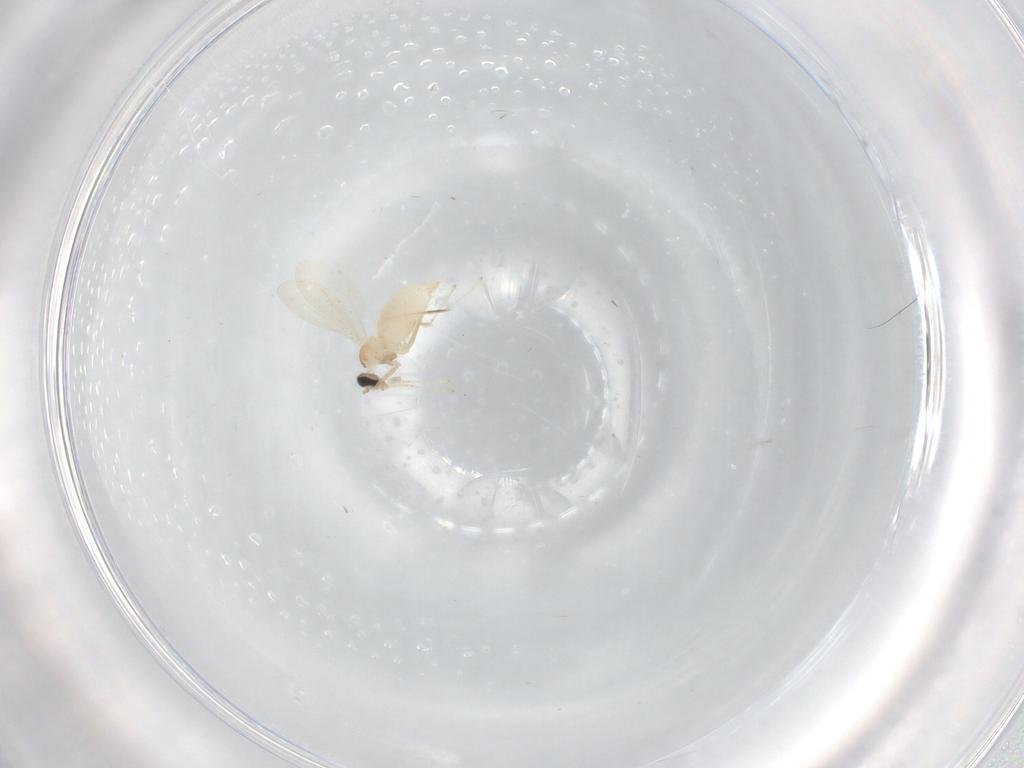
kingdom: Animalia
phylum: Arthropoda
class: Insecta
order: Diptera
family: Cecidomyiidae
